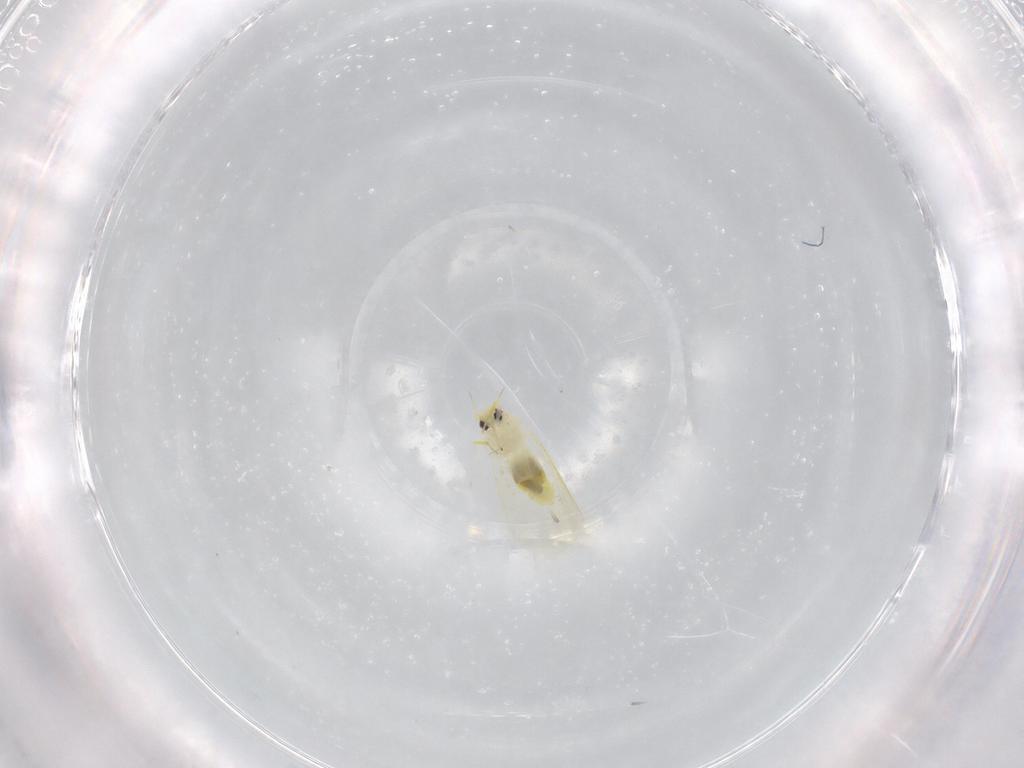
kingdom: Animalia
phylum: Arthropoda
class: Insecta
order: Hemiptera
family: Aleyrodidae
